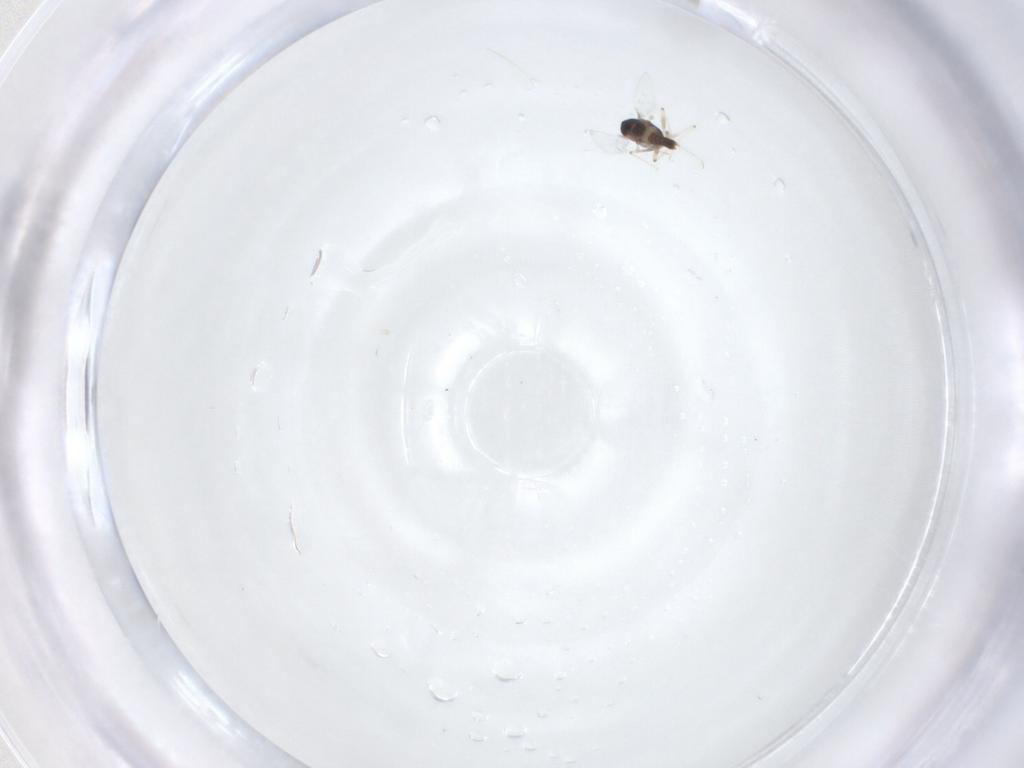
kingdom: Animalia
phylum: Arthropoda
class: Insecta
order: Diptera
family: Chironomidae
